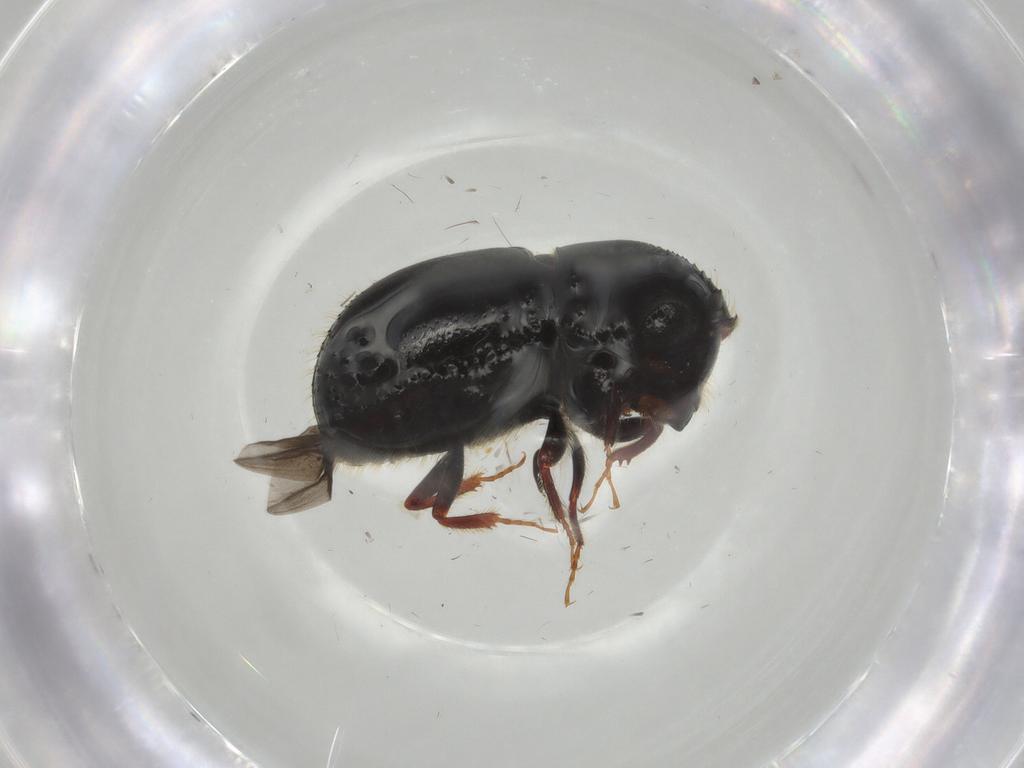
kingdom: Animalia
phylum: Arthropoda
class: Insecta
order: Coleoptera
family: Curculionidae
